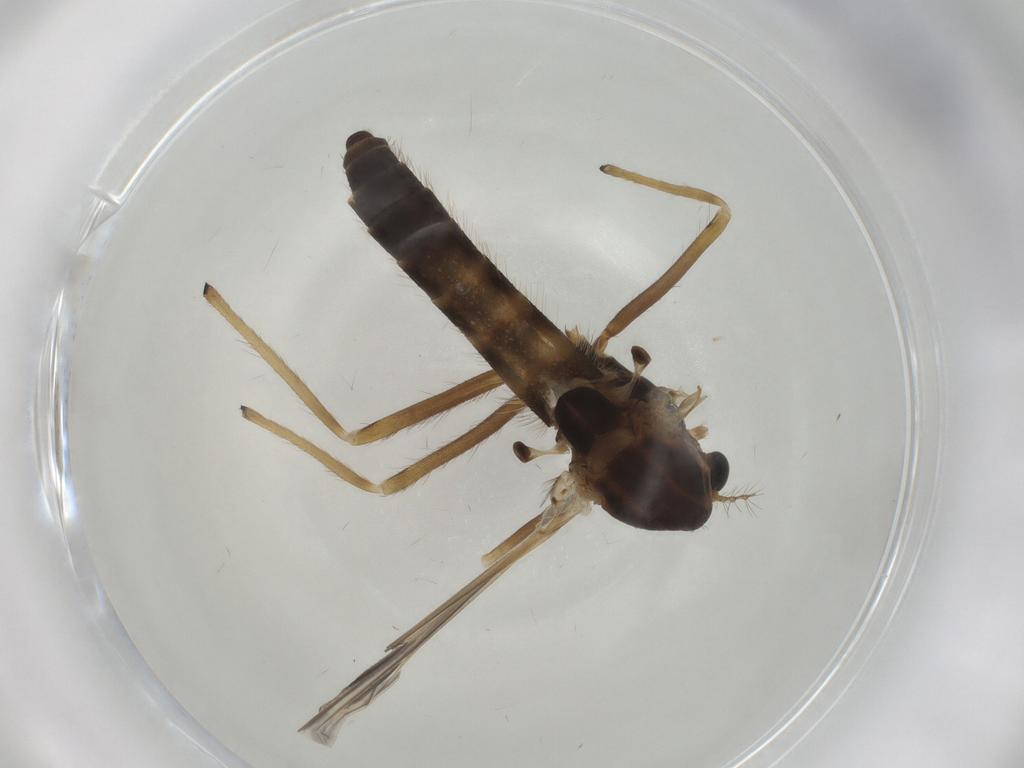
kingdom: Animalia
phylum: Arthropoda
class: Insecta
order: Diptera
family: Chironomidae
